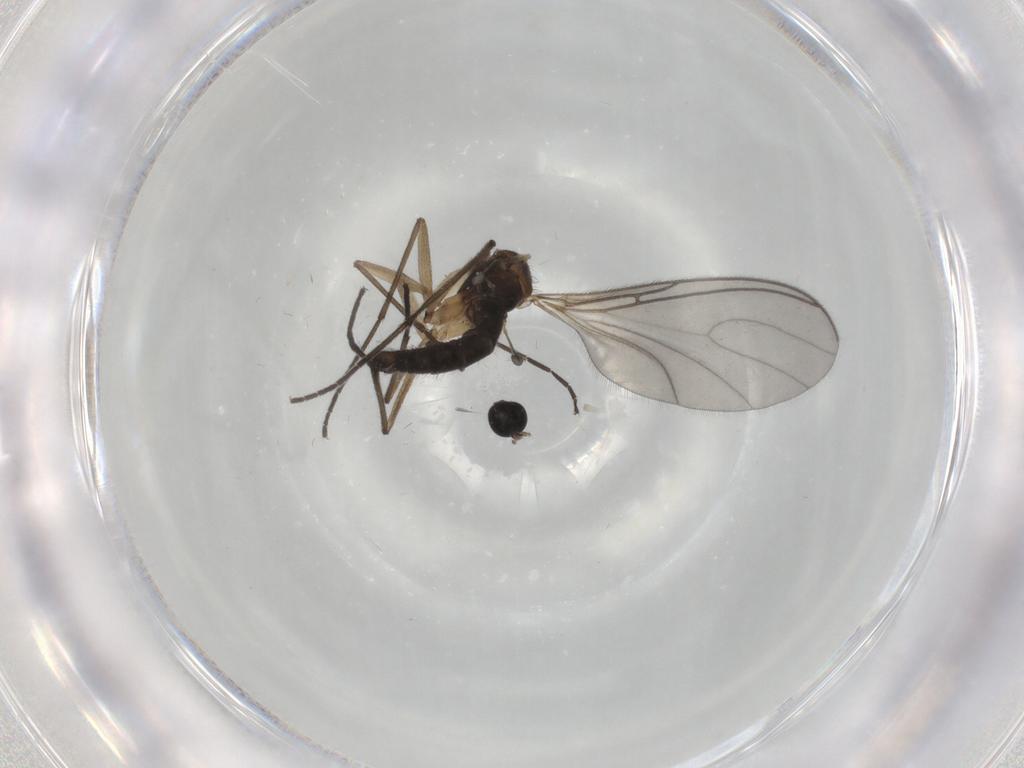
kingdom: Animalia
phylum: Arthropoda
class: Insecta
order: Diptera
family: Sciaridae
